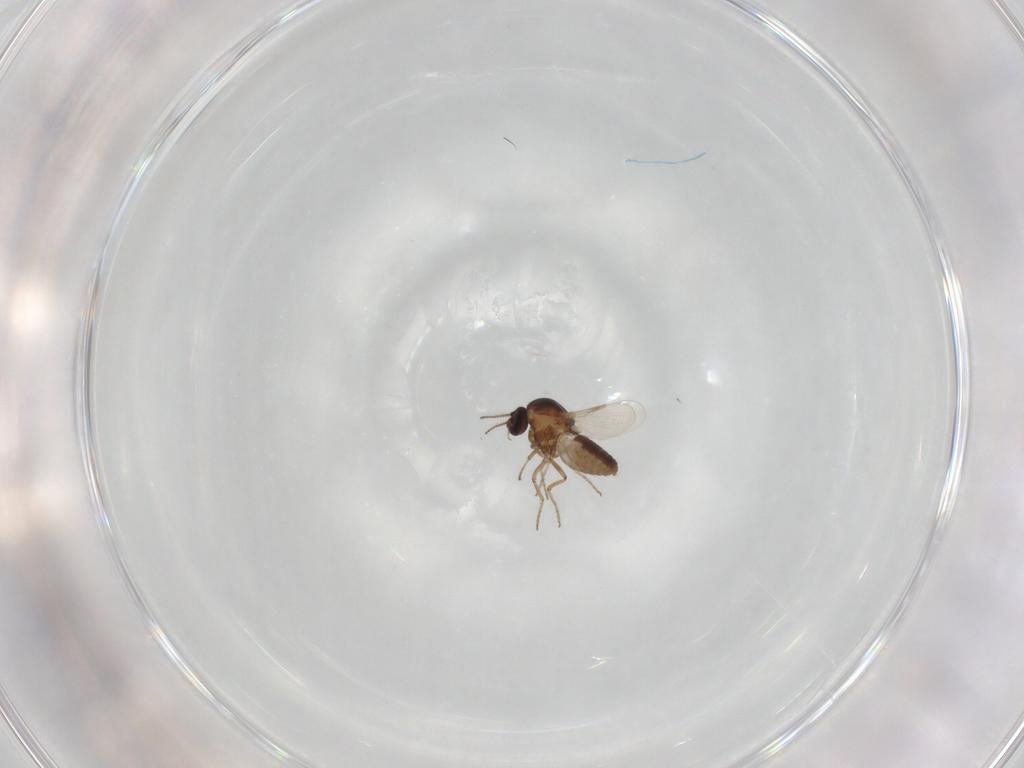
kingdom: Animalia
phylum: Arthropoda
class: Insecta
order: Diptera
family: Ceratopogonidae
